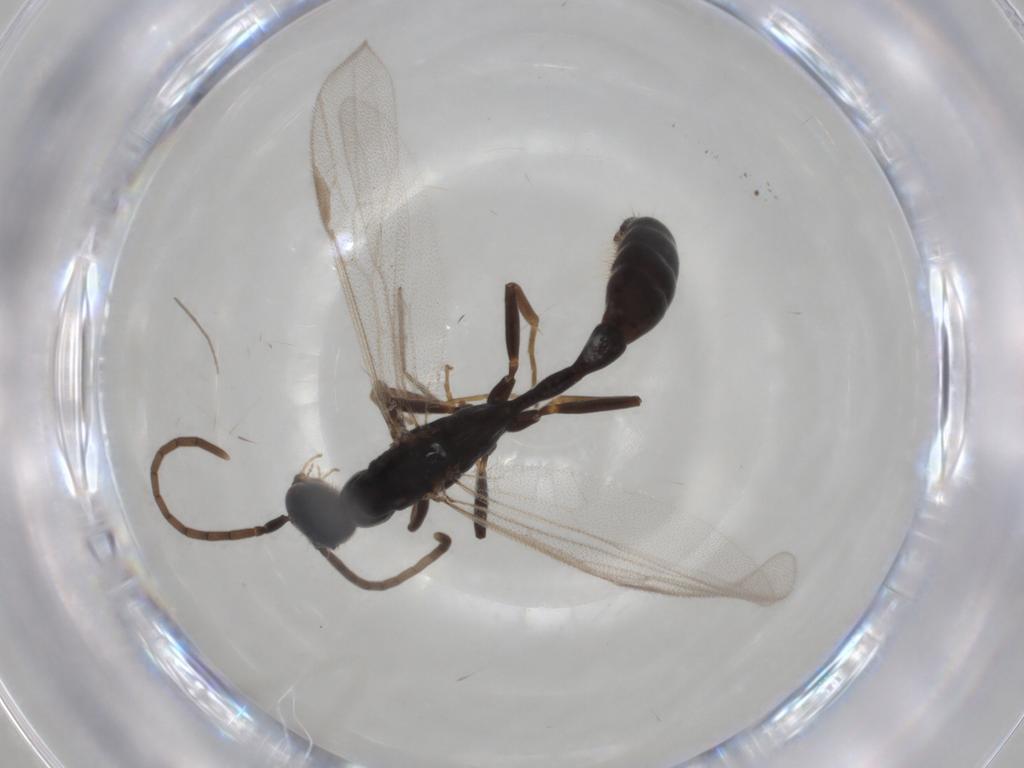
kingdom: Animalia
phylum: Arthropoda
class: Insecta
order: Hymenoptera
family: Formicidae
